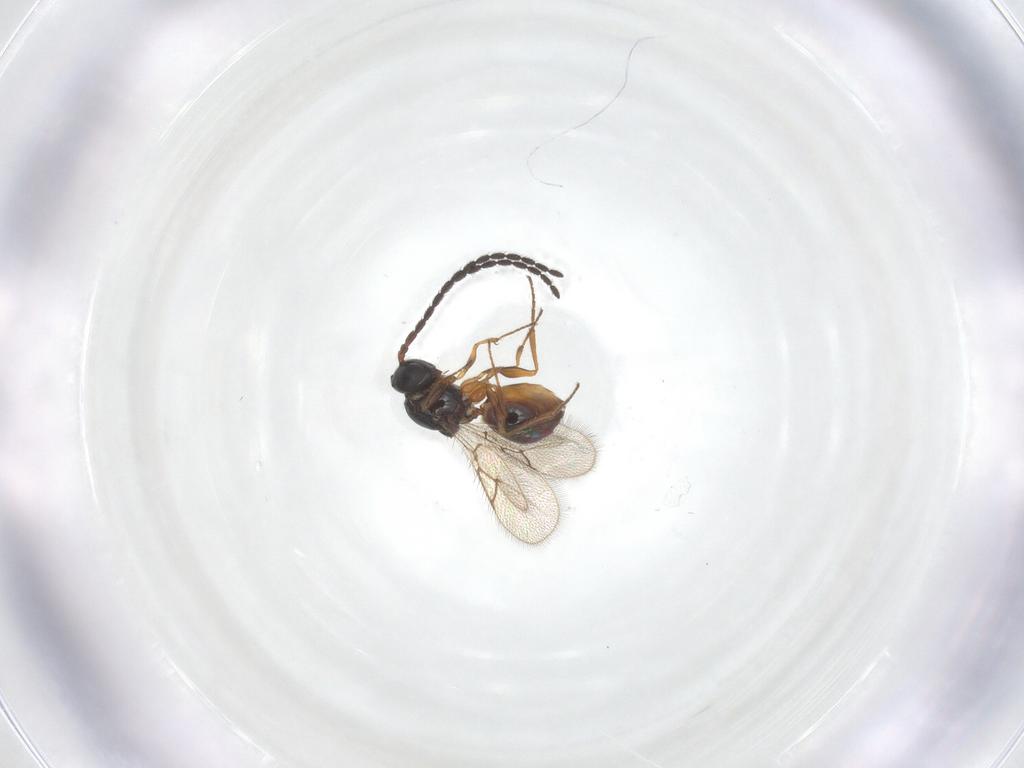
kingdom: Animalia
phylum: Arthropoda
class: Insecta
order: Hymenoptera
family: Figitidae
